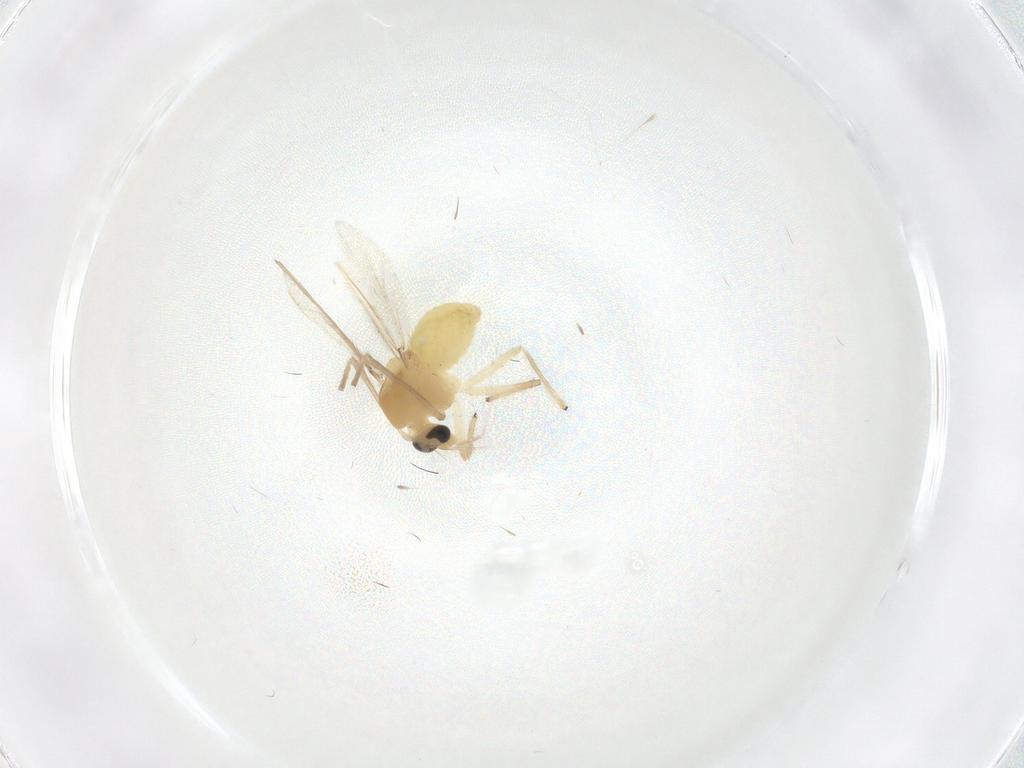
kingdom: Animalia
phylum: Arthropoda
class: Insecta
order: Diptera
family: Chironomidae
